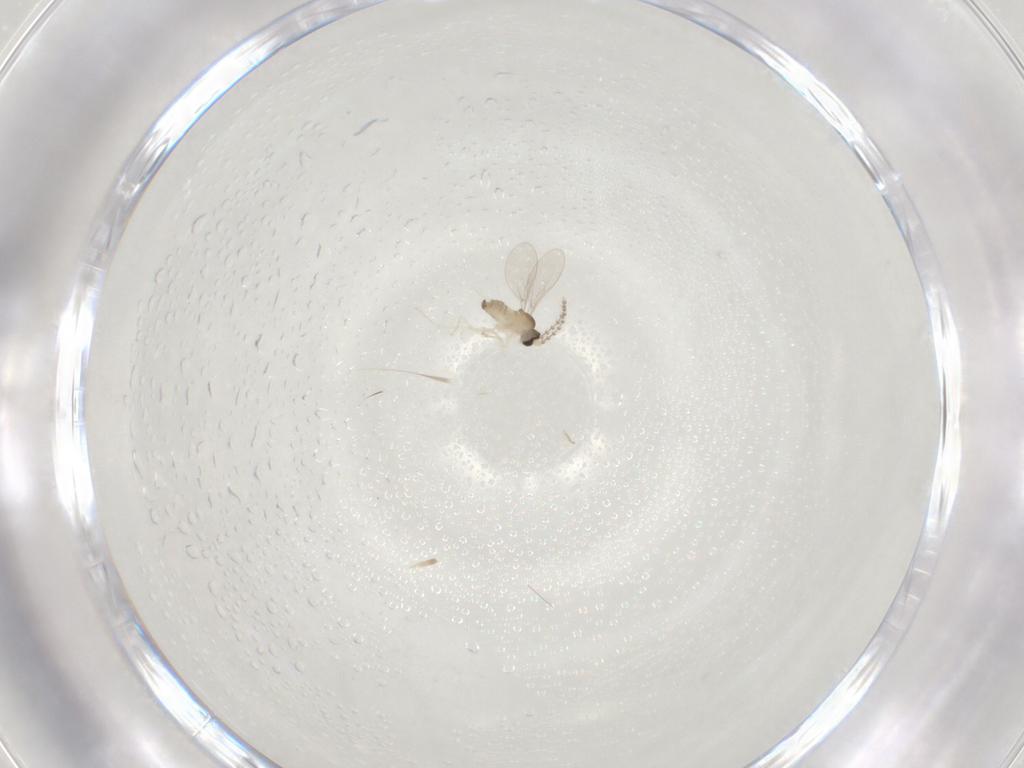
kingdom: Animalia
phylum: Arthropoda
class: Insecta
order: Diptera
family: Cecidomyiidae
